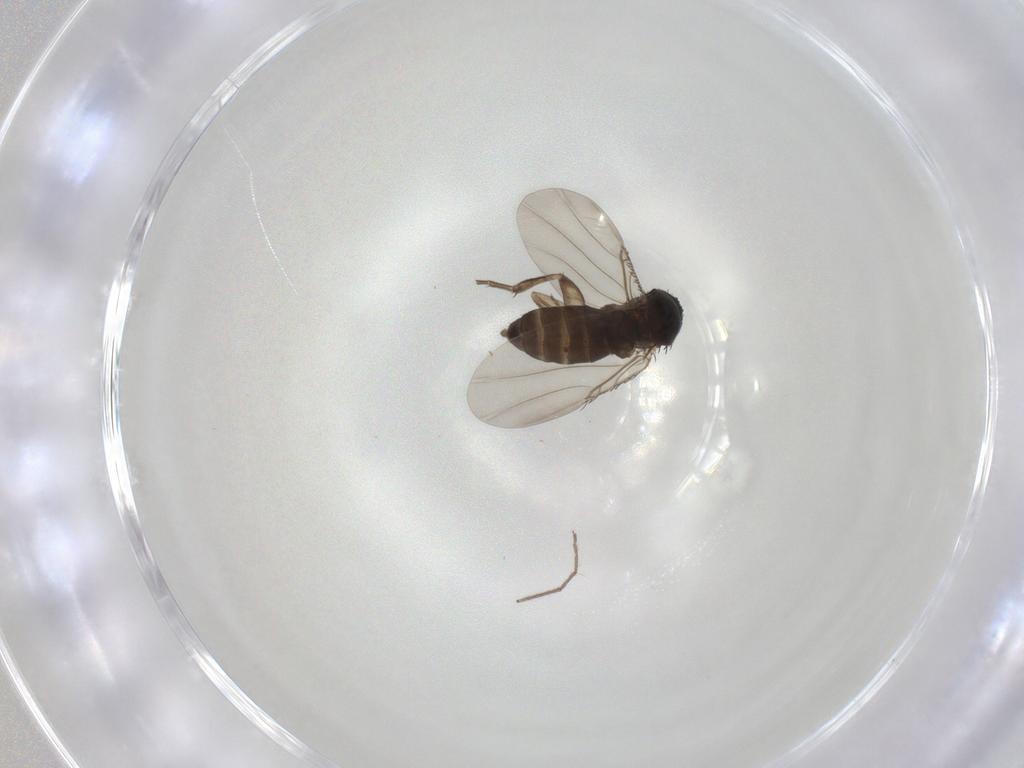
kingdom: Animalia
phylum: Arthropoda
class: Insecta
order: Diptera
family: Phoridae
